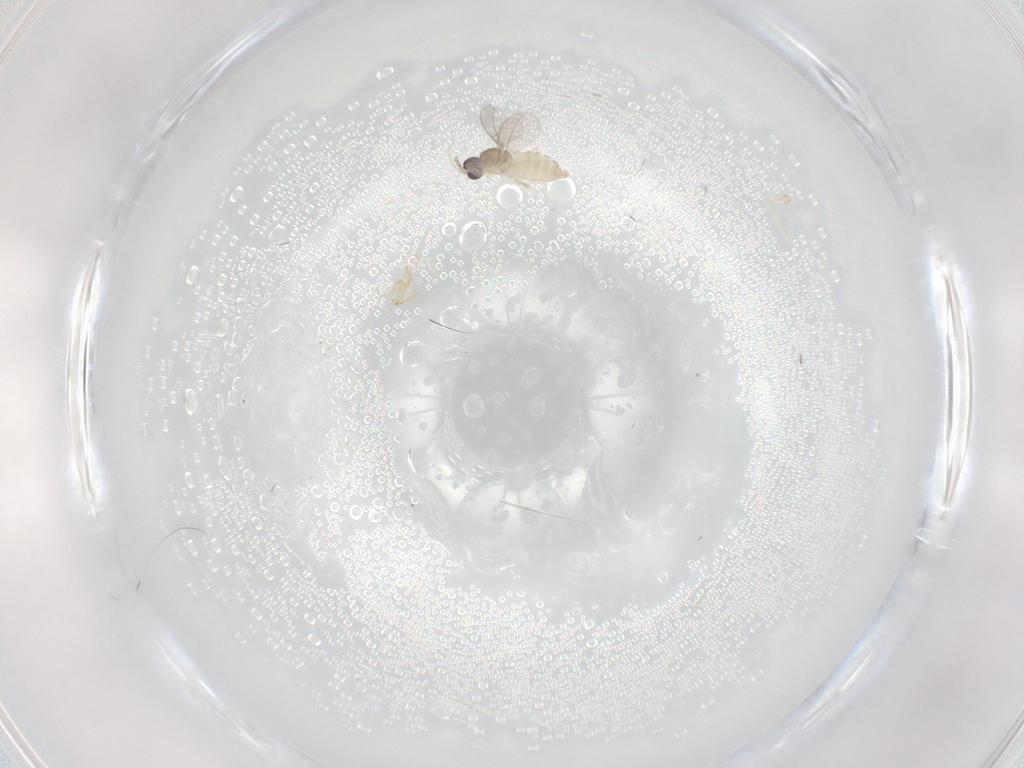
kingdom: Animalia
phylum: Arthropoda
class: Insecta
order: Diptera
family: Cecidomyiidae
